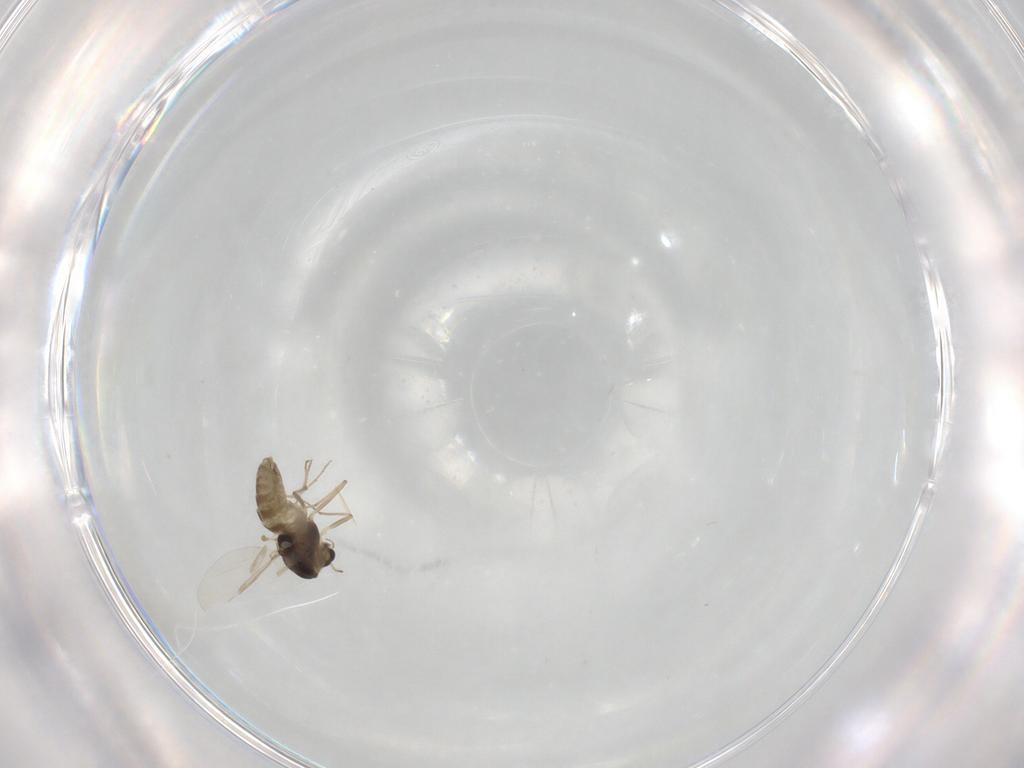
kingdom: Animalia
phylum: Arthropoda
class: Insecta
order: Diptera
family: Chironomidae
